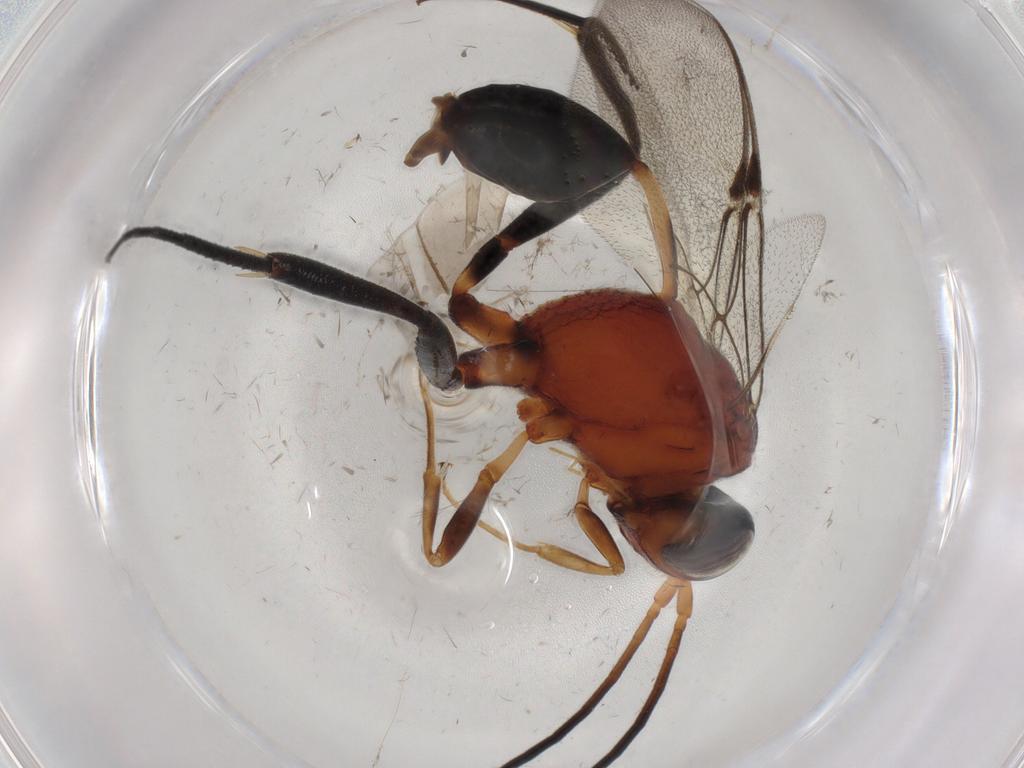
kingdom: Animalia
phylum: Arthropoda
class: Insecta
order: Hymenoptera
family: Evaniidae
